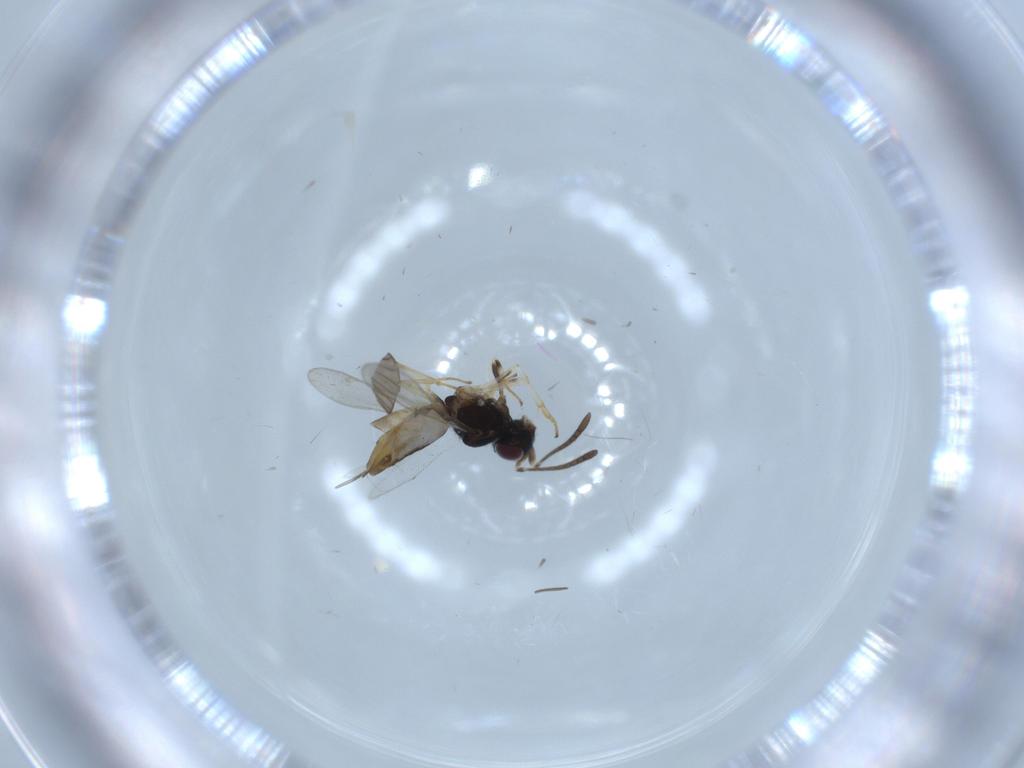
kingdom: Animalia
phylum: Arthropoda
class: Insecta
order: Hymenoptera
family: Eupelmidae
